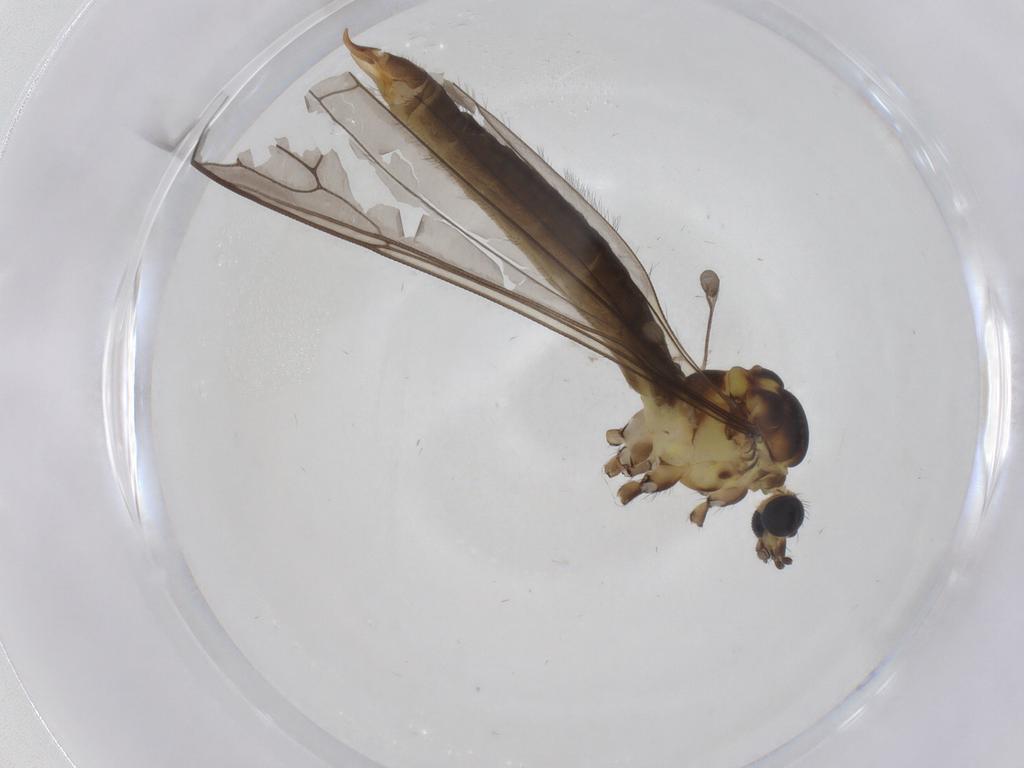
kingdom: Animalia
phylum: Arthropoda
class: Insecta
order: Diptera
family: Limoniidae
